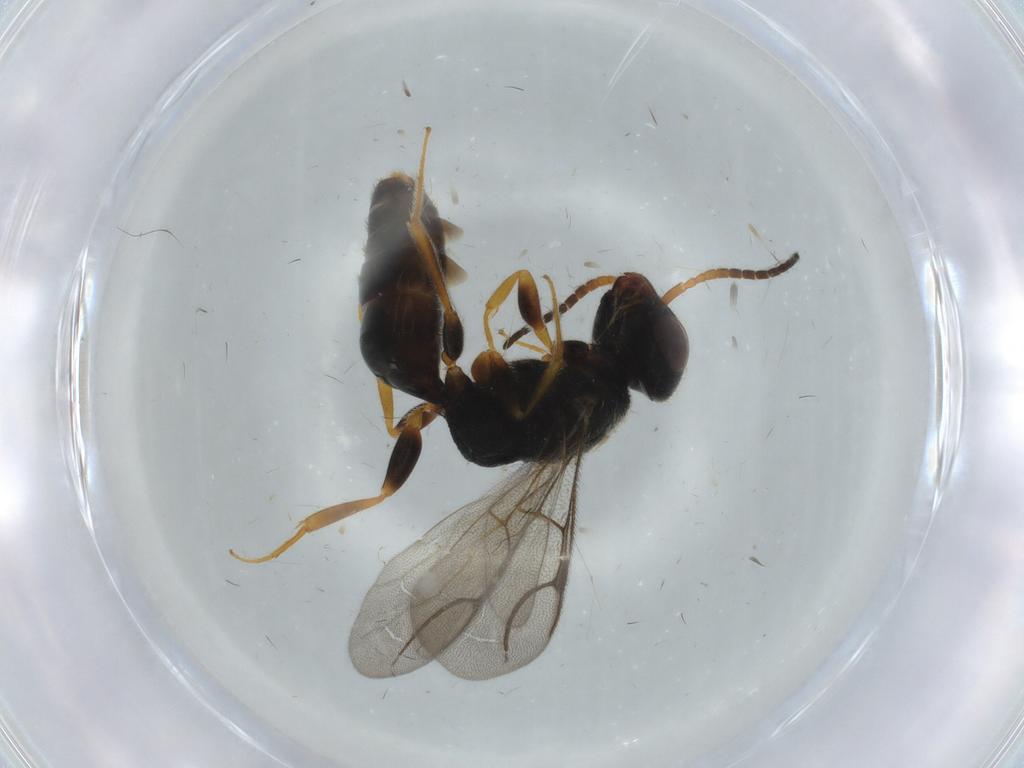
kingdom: Animalia
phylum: Arthropoda
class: Insecta
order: Hymenoptera
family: Bethylidae
